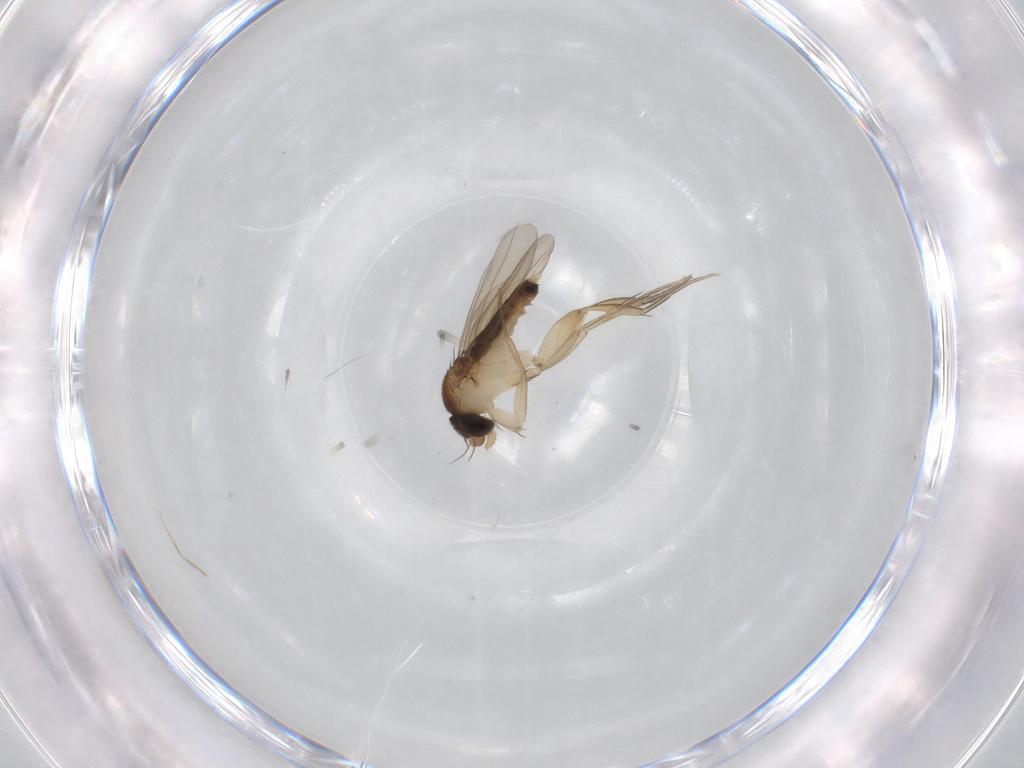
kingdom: Animalia
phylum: Arthropoda
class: Insecta
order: Diptera
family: Phoridae
